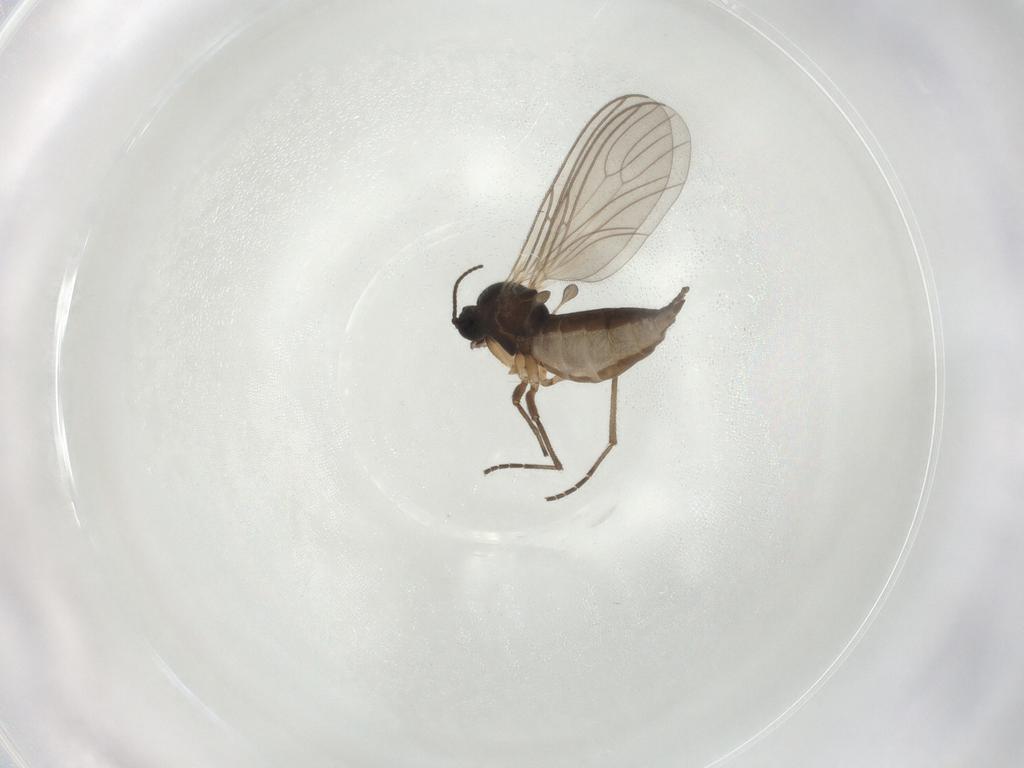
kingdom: Animalia
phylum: Arthropoda
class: Insecta
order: Diptera
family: Sciaridae
